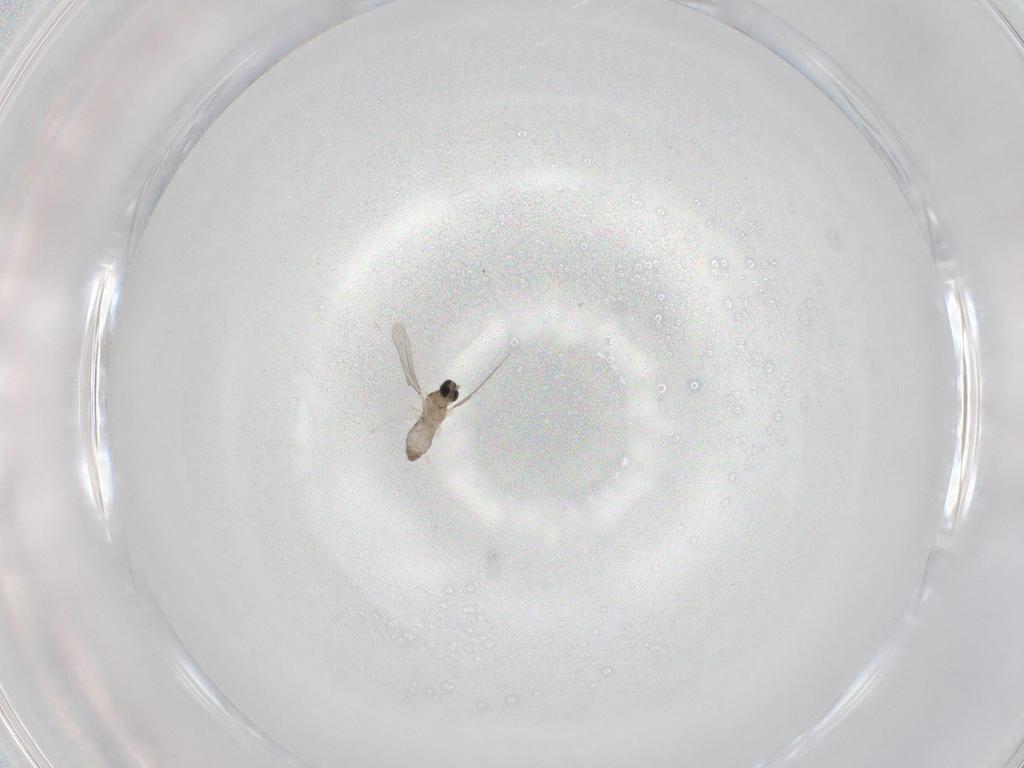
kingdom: Animalia
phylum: Arthropoda
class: Insecta
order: Diptera
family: Cecidomyiidae
